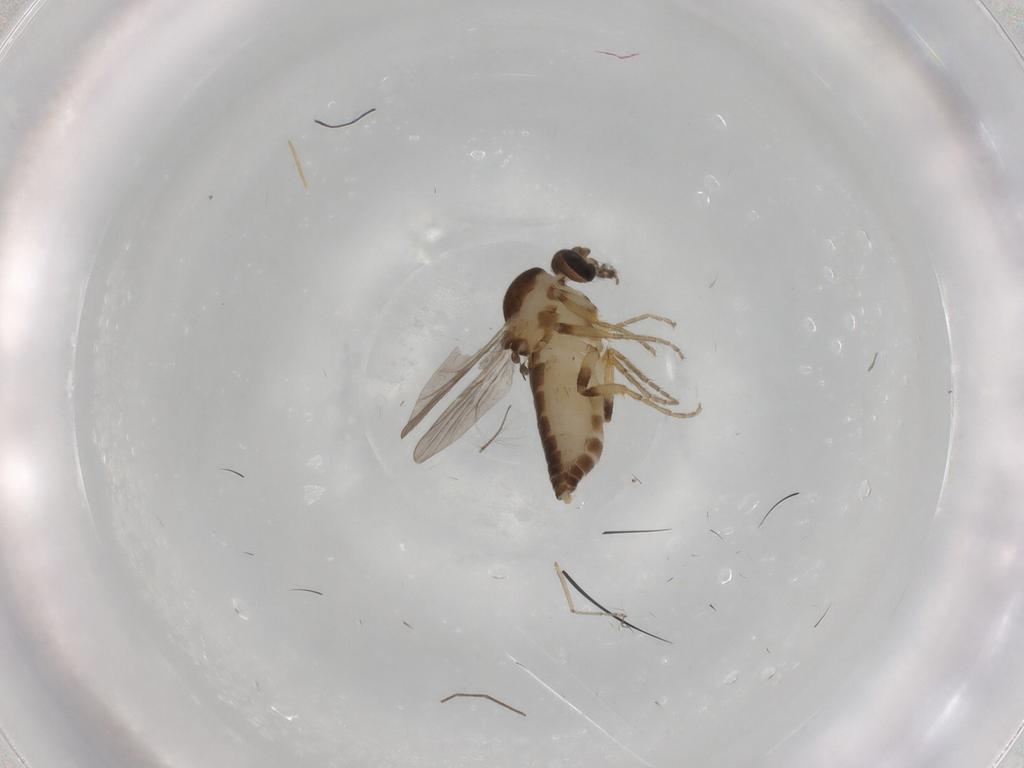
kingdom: Animalia
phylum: Arthropoda
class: Insecta
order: Diptera
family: Ceratopogonidae
